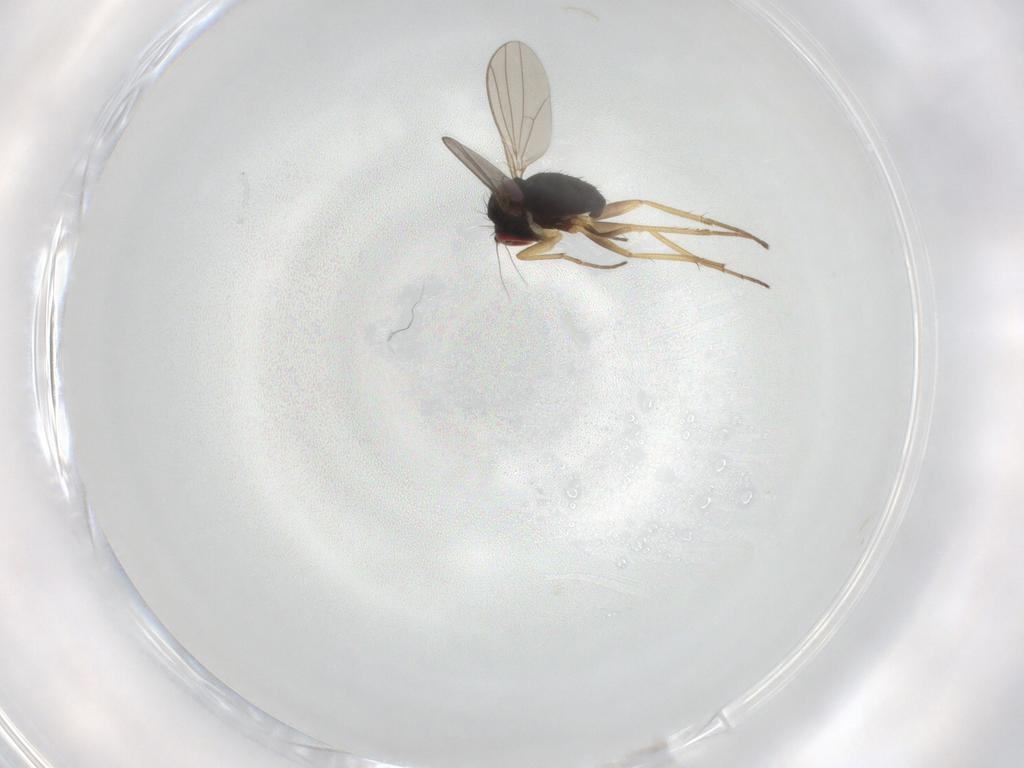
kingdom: Animalia
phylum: Arthropoda
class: Insecta
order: Diptera
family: Dolichopodidae
